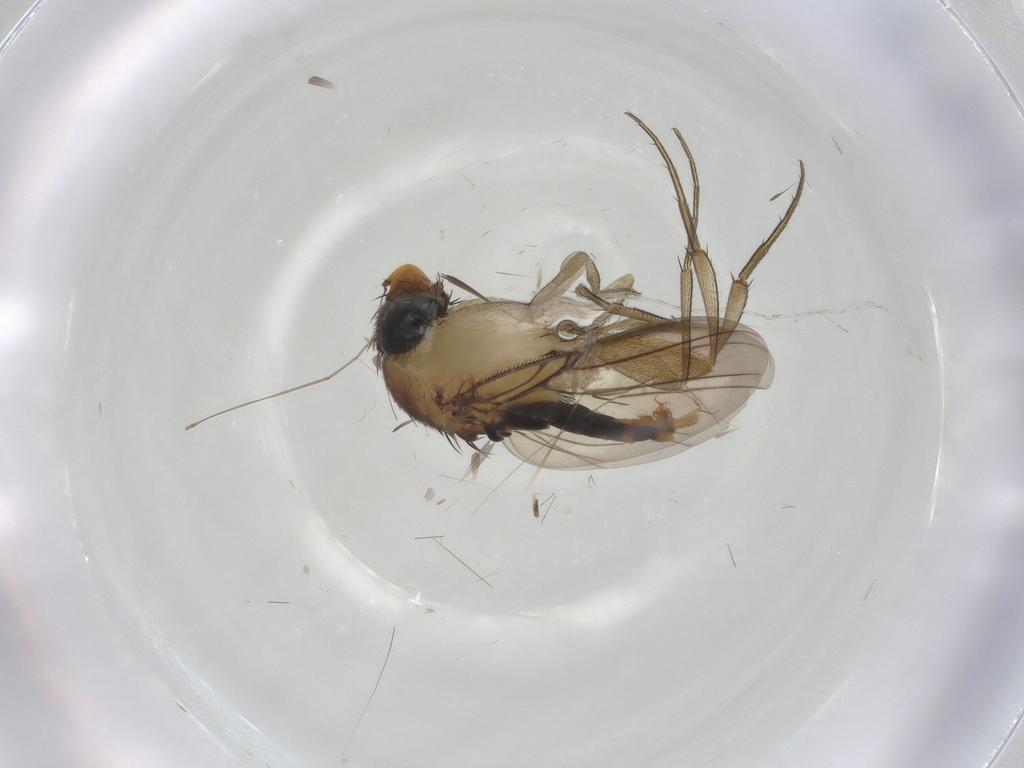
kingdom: Animalia
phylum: Arthropoda
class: Insecta
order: Diptera
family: Phoridae
